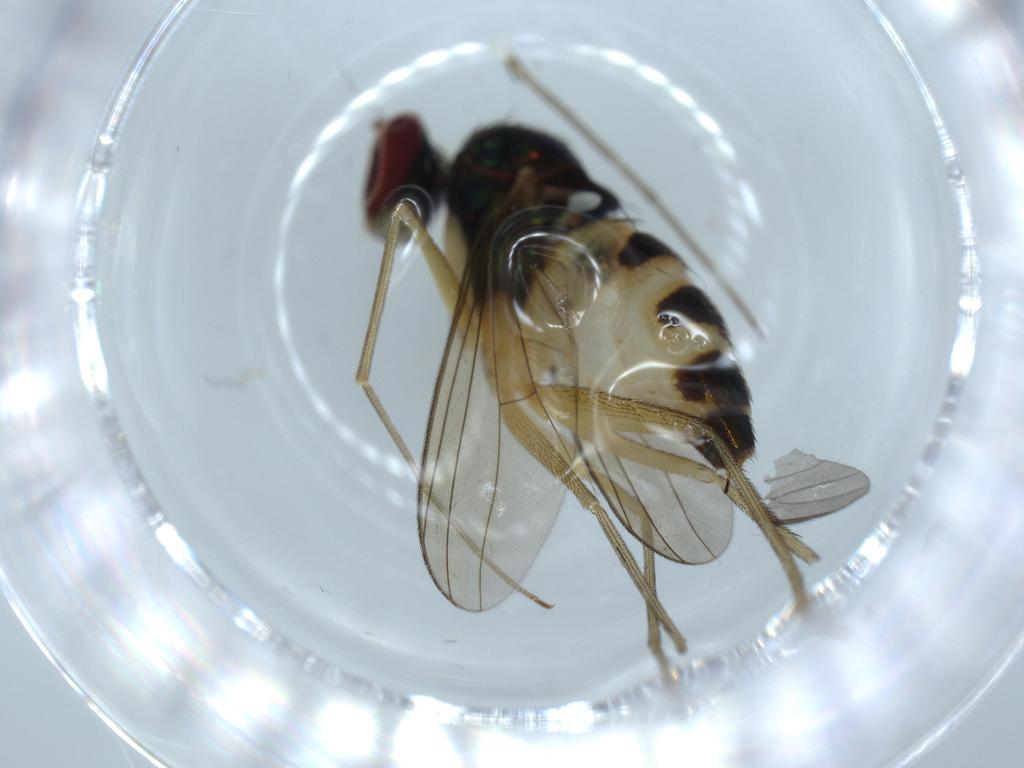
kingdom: Animalia
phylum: Arthropoda
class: Insecta
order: Diptera
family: Dolichopodidae
